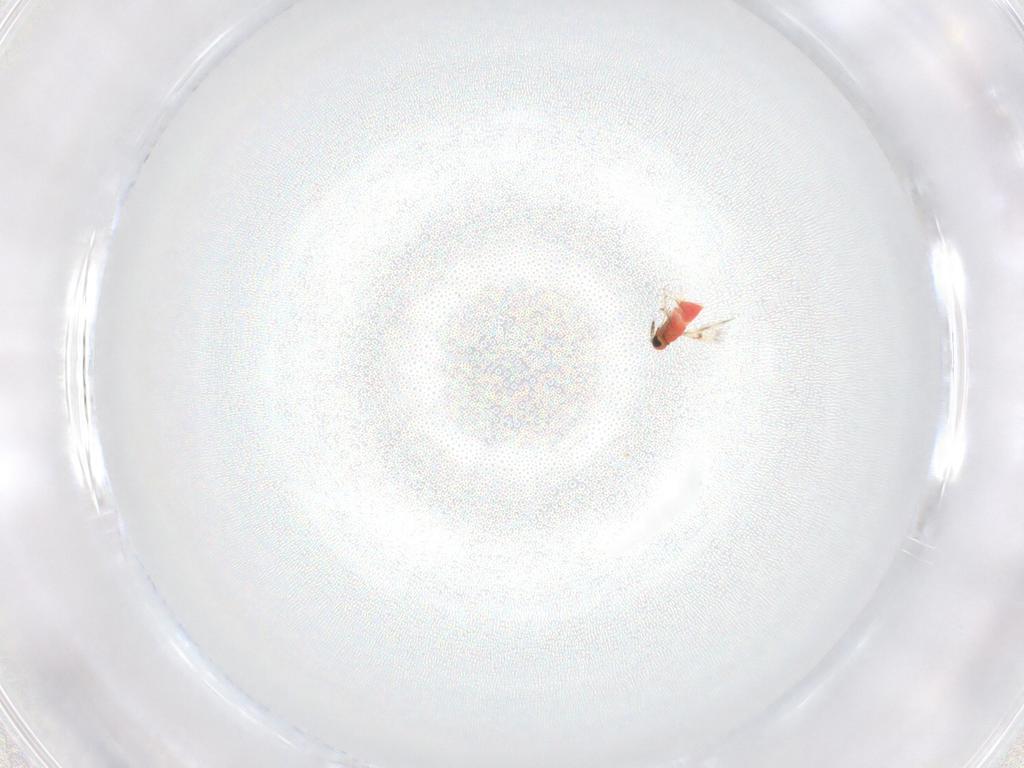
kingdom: Animalia
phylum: Arthropoda
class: Insecta
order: Hymenoptera
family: Trichogrammatidae
